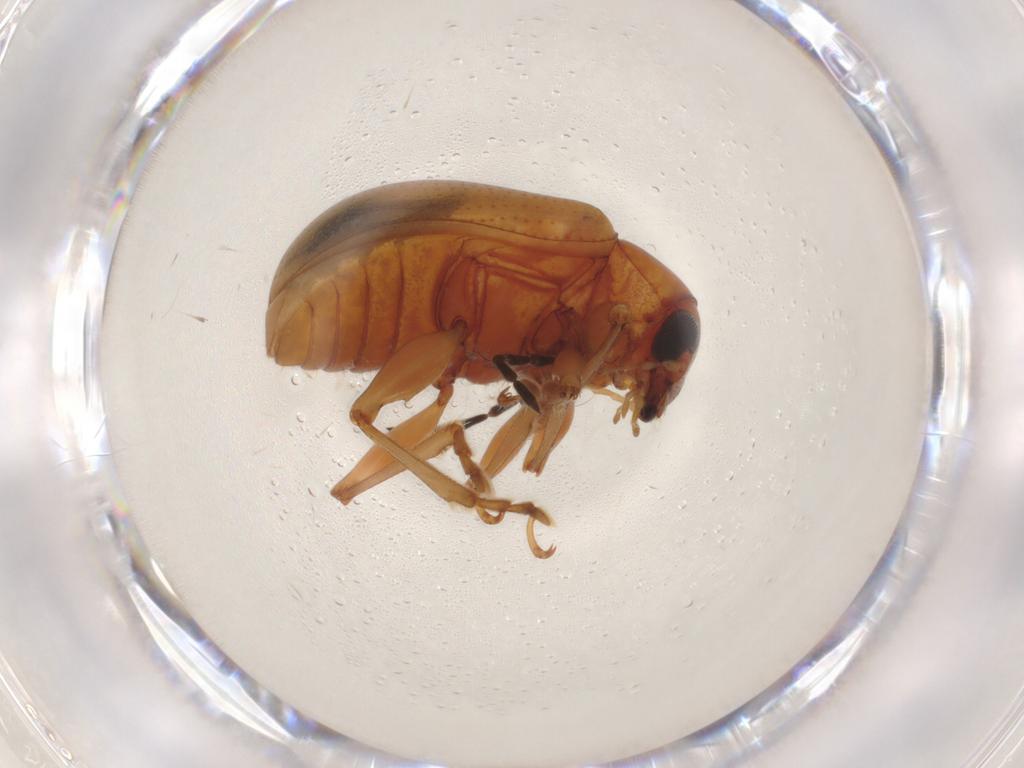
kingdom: Animalia
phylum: Arthropoda
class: Insecta
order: Coleoptera
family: Chrysomelidae
